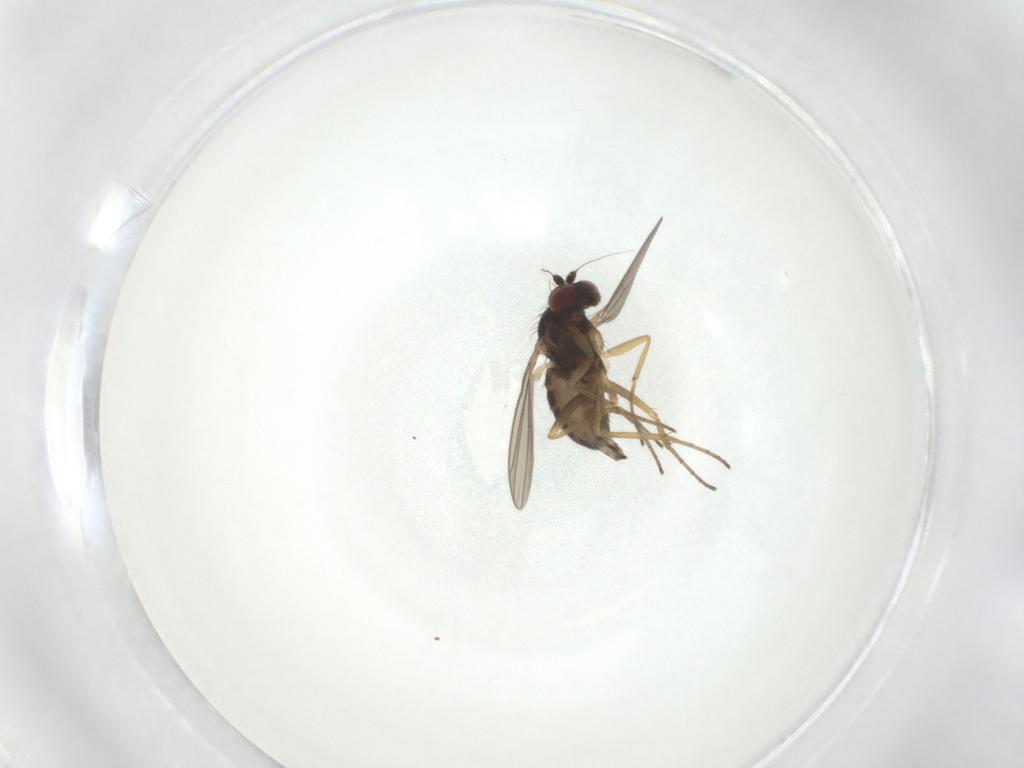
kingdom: Animalia
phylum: Arthropoda
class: Insecta
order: Diptera
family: Dolichopodidae
